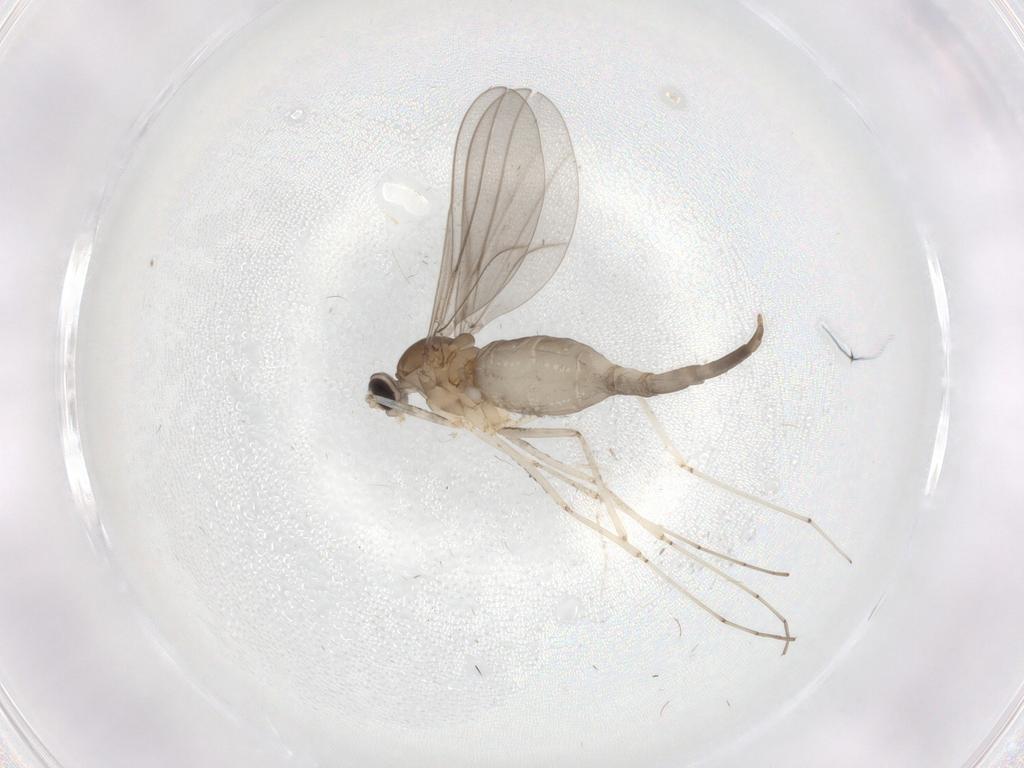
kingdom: Animalia
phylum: Arthropoda
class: Insecta
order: Diptera
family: Cecidomyiidae
